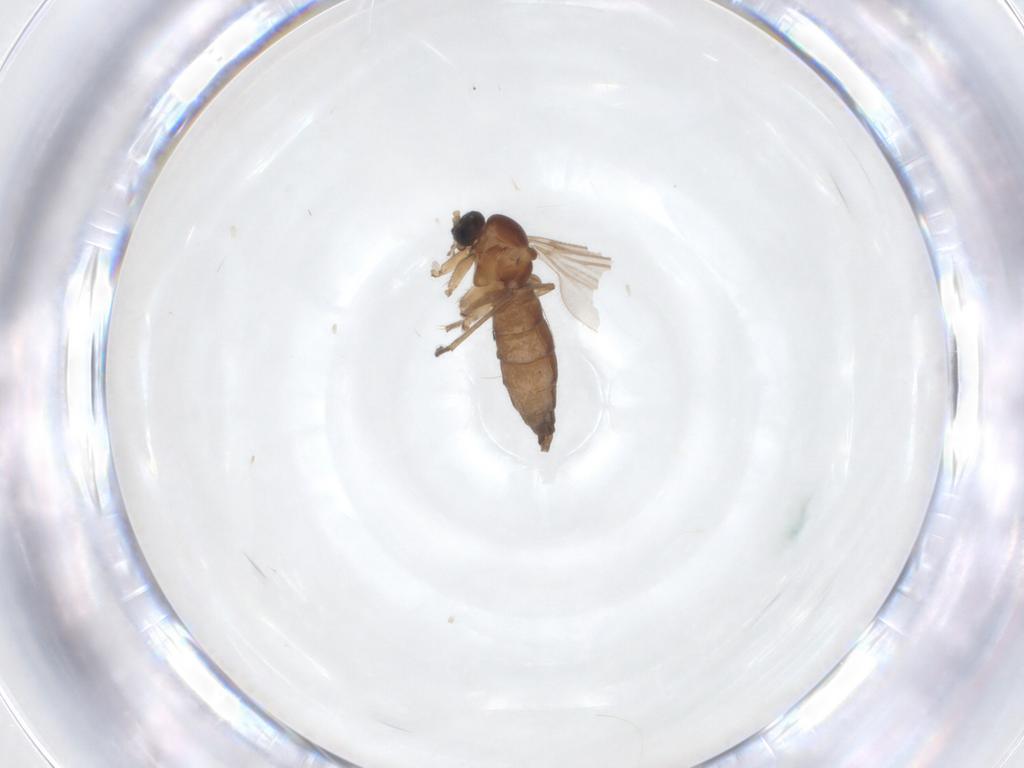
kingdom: Animalia
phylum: Arthropoda
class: Insecta
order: Diptera
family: Sciaridae
